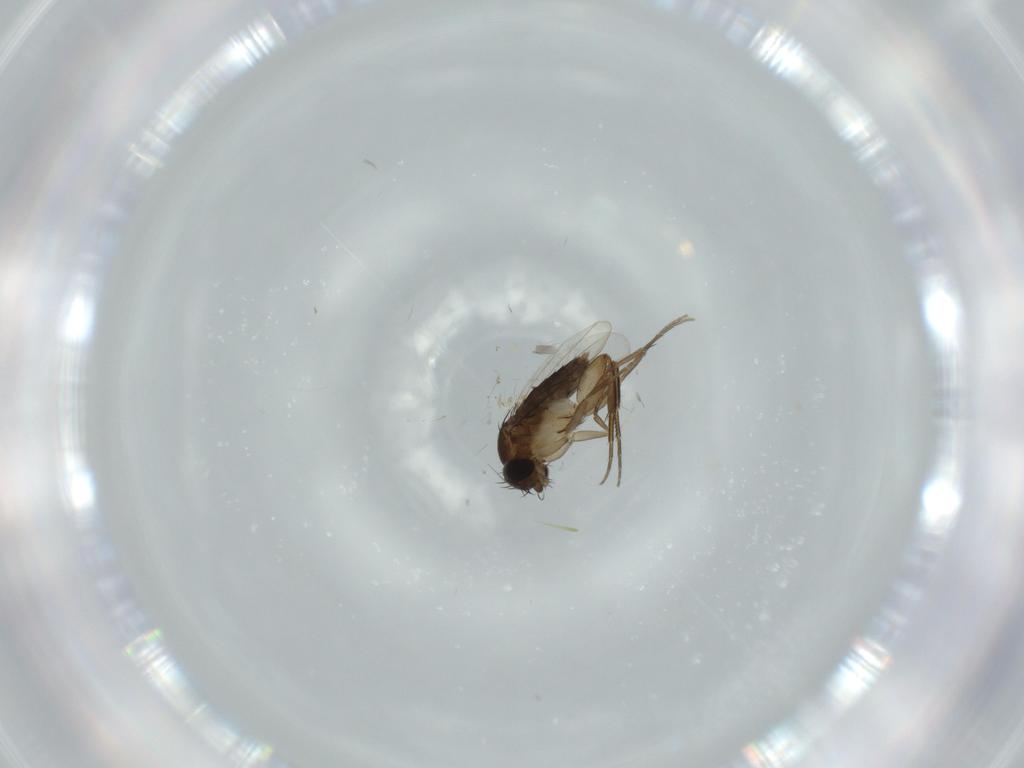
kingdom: Animalia
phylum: Arthropoda
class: Insecta
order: Diptera
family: Phoridae
